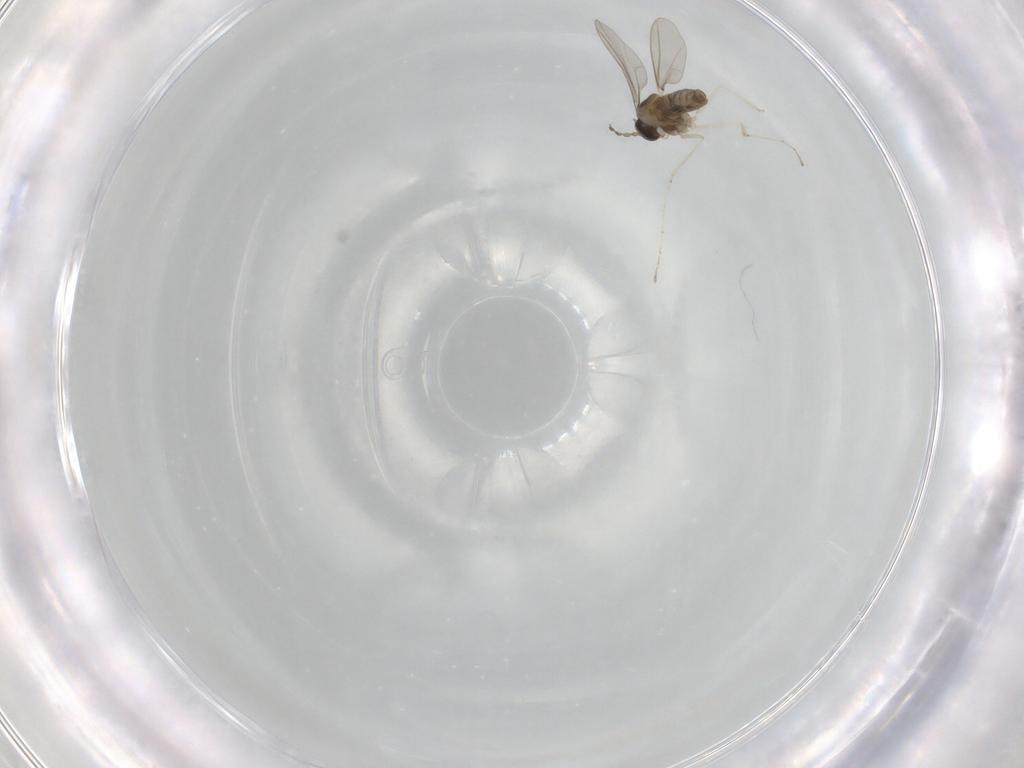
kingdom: Animalia
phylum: Arthropoda
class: Insecta
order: Diptera
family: Cecidomyiidae
